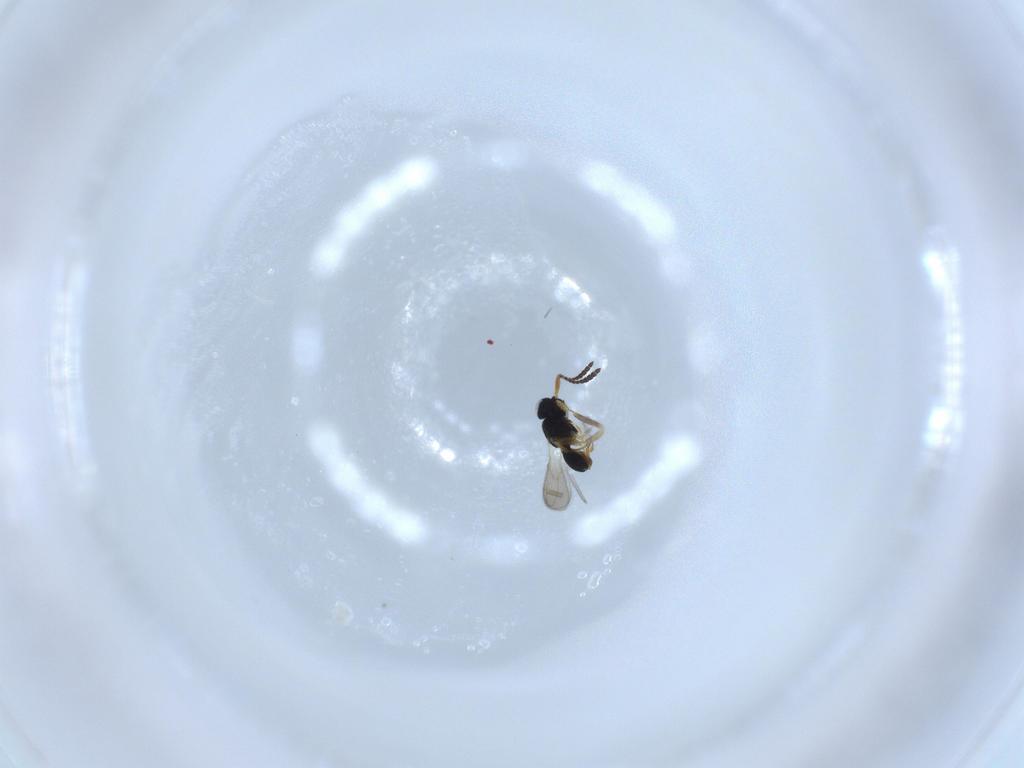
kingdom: Animalia
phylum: Arthropoda
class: Insecta
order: Hymenoptera
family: Scelionidae
